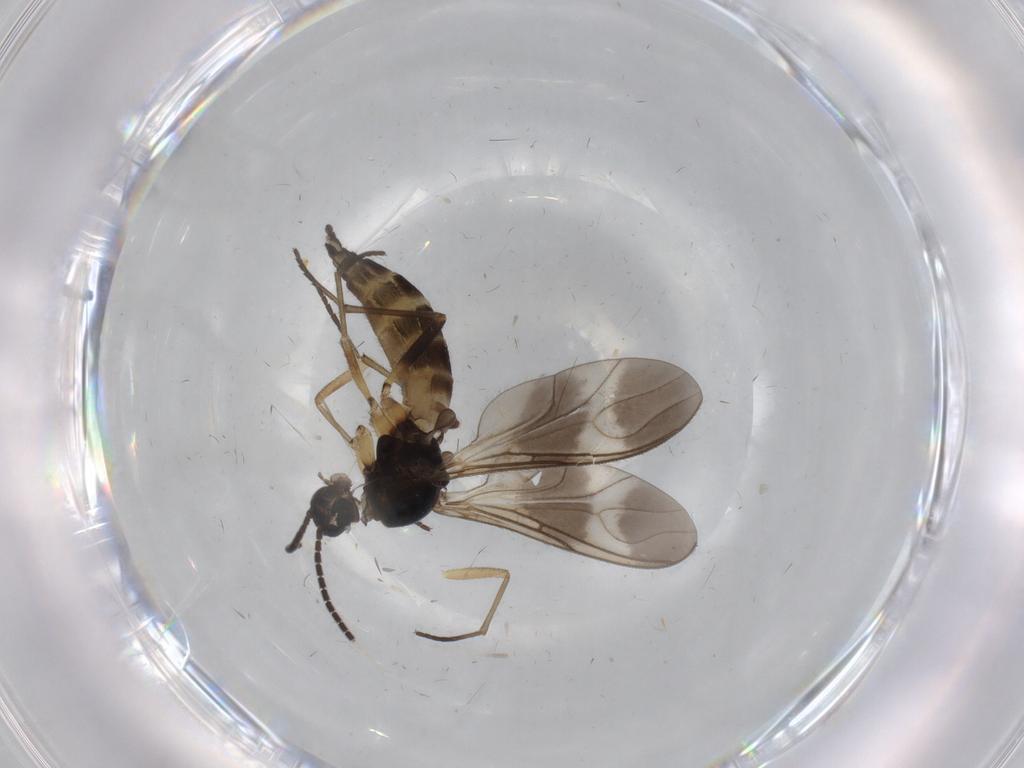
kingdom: Animalia
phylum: Arthropoda
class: Insecta
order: Diptera
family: Sciaridae
